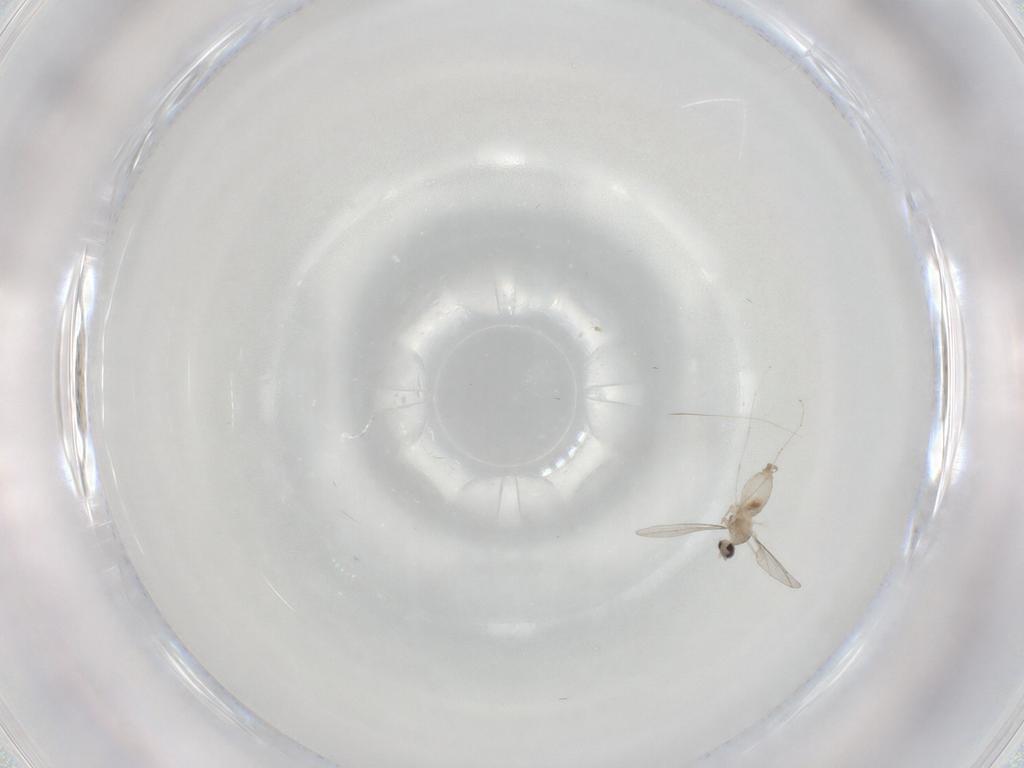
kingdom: Animalia
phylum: Arthropoda
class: Insecta
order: Diptera
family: Cecidomyiidae
